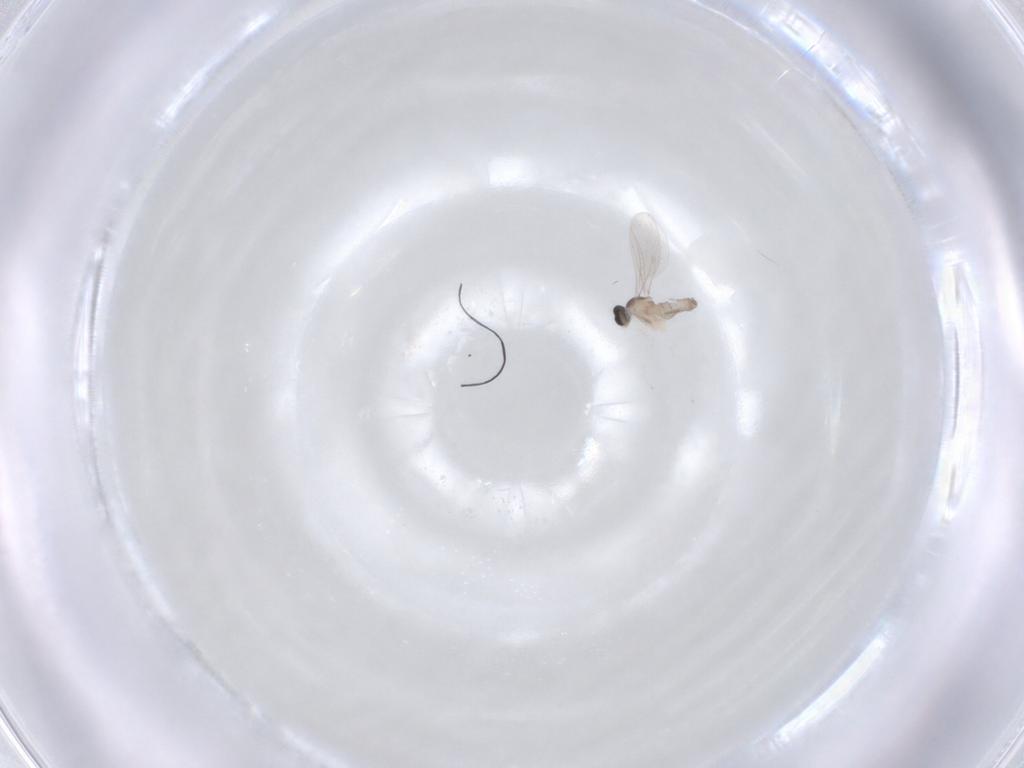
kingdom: Animalia
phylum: Arthropoda
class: Insecta
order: Diptera
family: Cecidomyiidae
